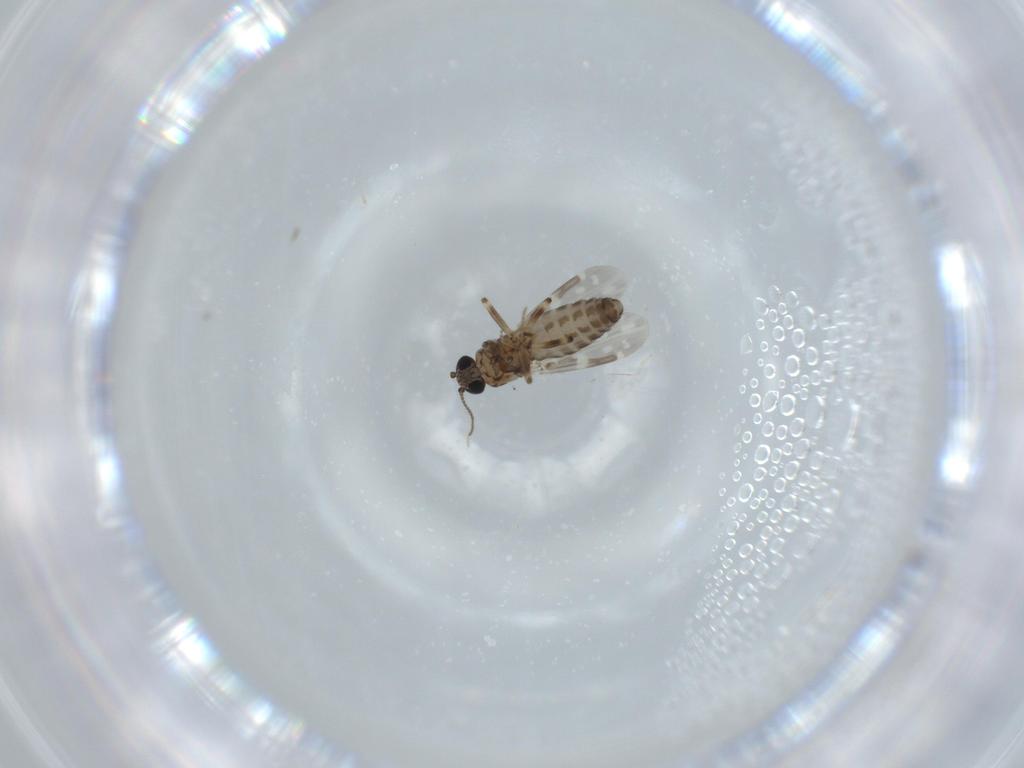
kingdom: Animalia
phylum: Arthropoda
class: Insecta
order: Diptera
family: Ceratopogonidae
